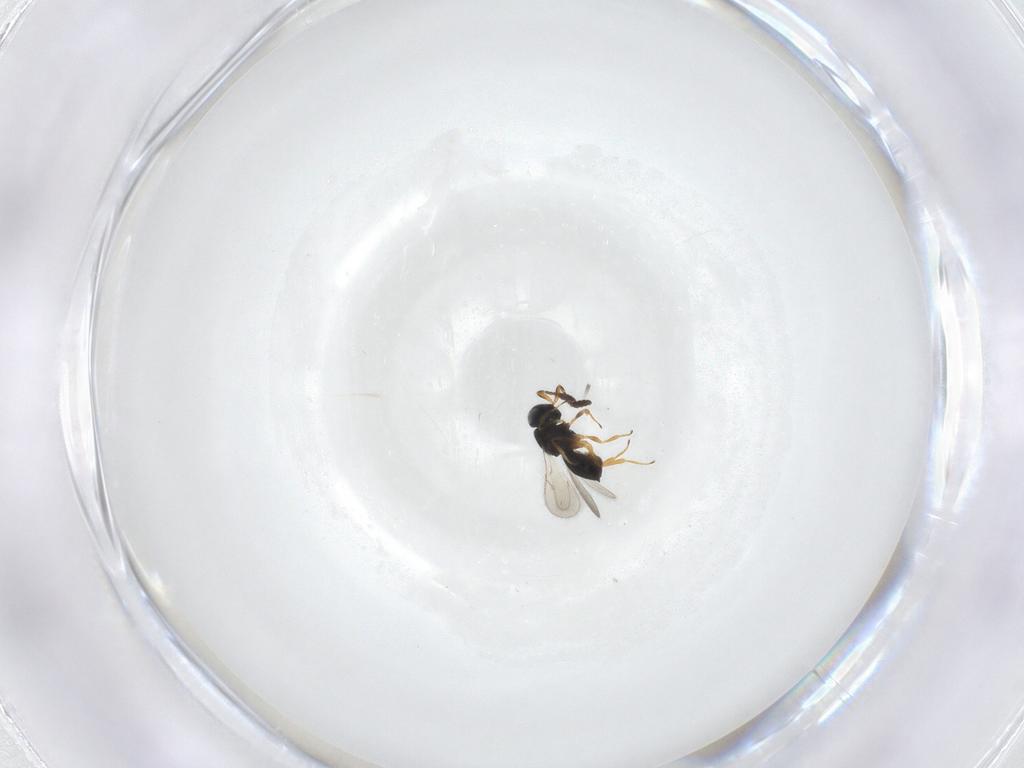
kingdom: Animalia
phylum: Arthropoda
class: Insecta
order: Hymenoptera
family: Scelionidae
